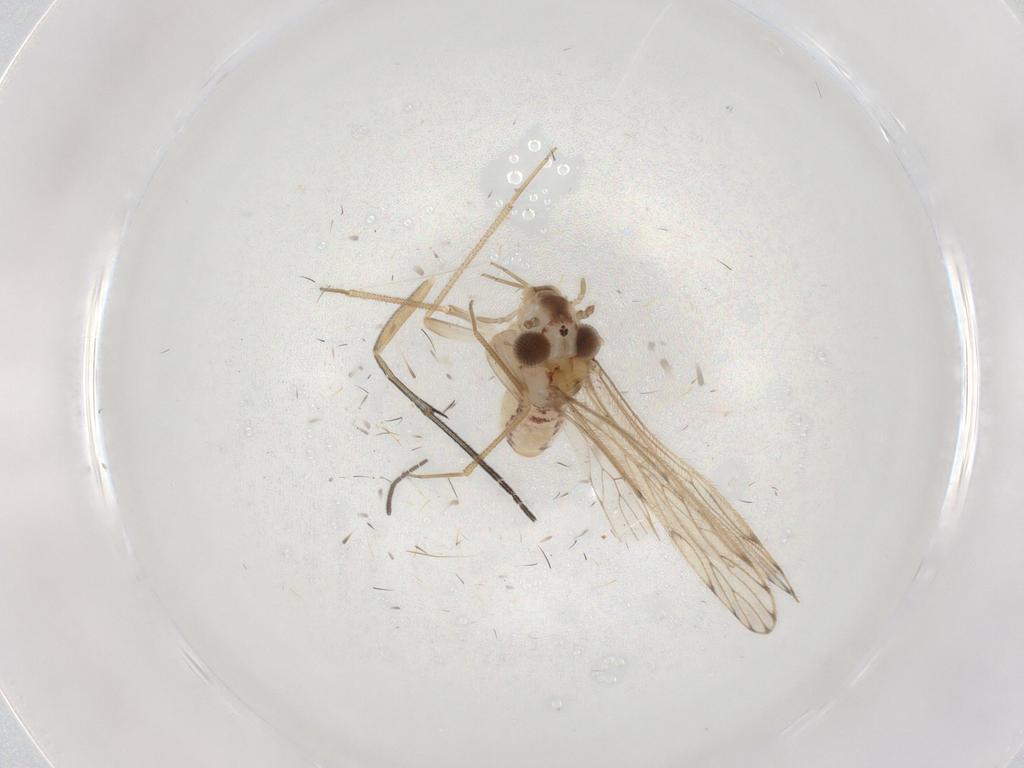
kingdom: Animalia
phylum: Arthropoda
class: Insecta
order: Psocodea
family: Epipsocidae
